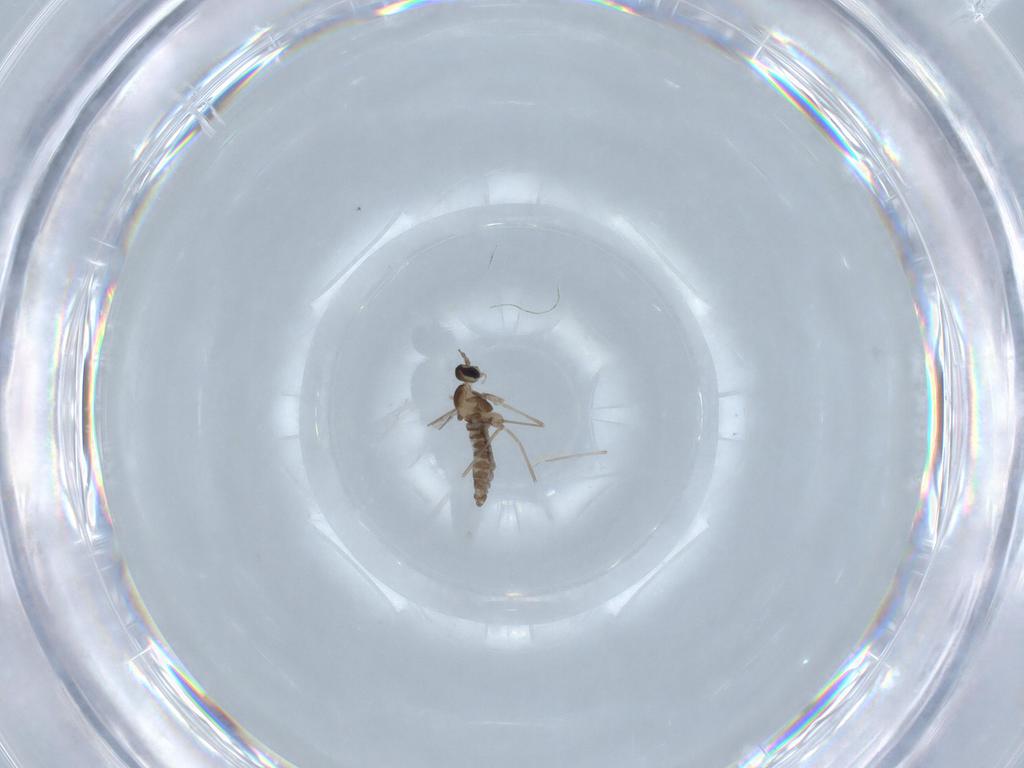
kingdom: Animalia
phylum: Arthropoda
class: Insecta
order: Diptera
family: Cecidomyiidae
